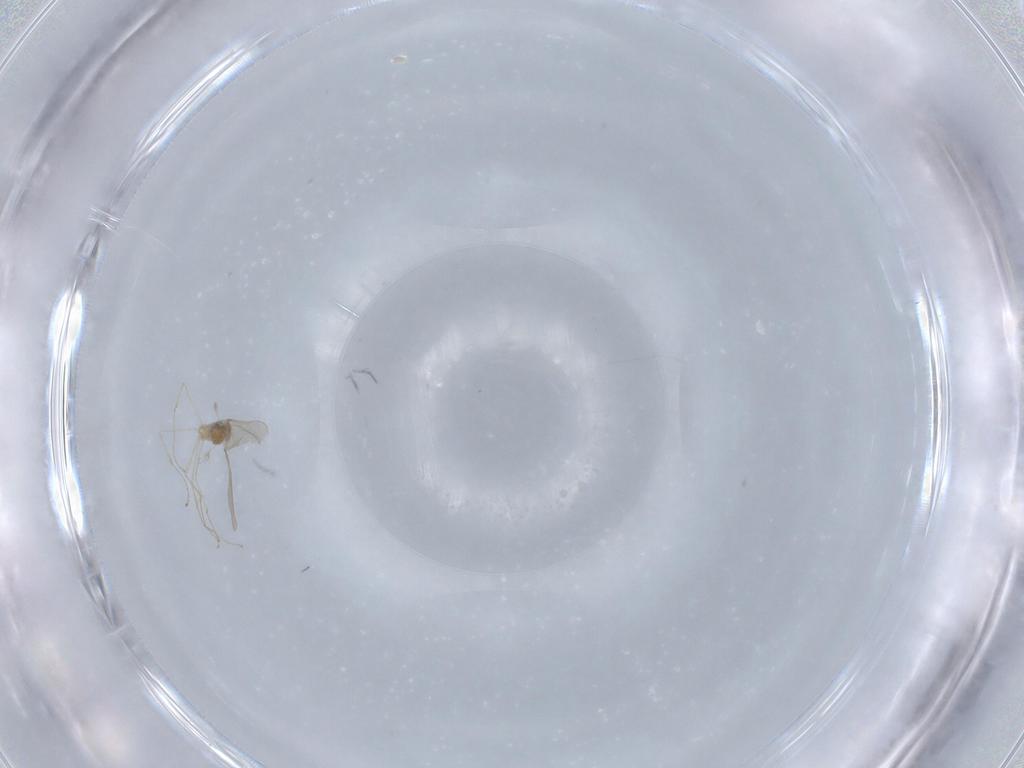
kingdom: Animalia
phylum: Arthropoda
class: Insecta
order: Diptera
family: Cecidomyiidae
